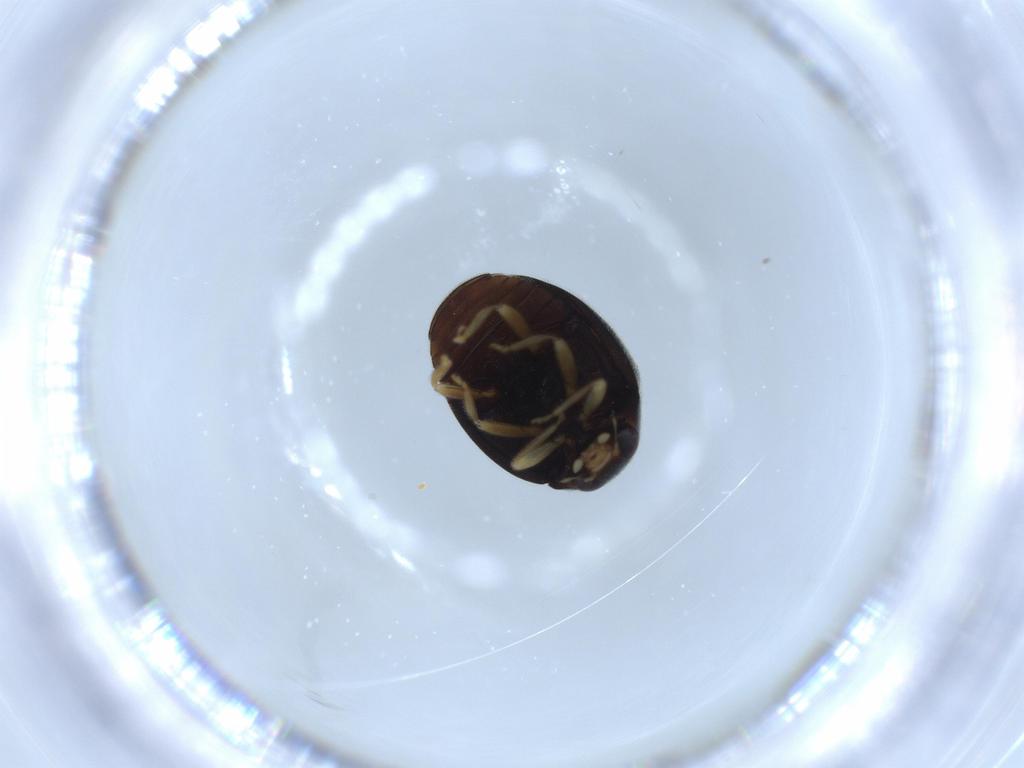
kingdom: Animalia
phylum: Arthropoda
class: Insecta
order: Coleoptera
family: Coccinellidae
